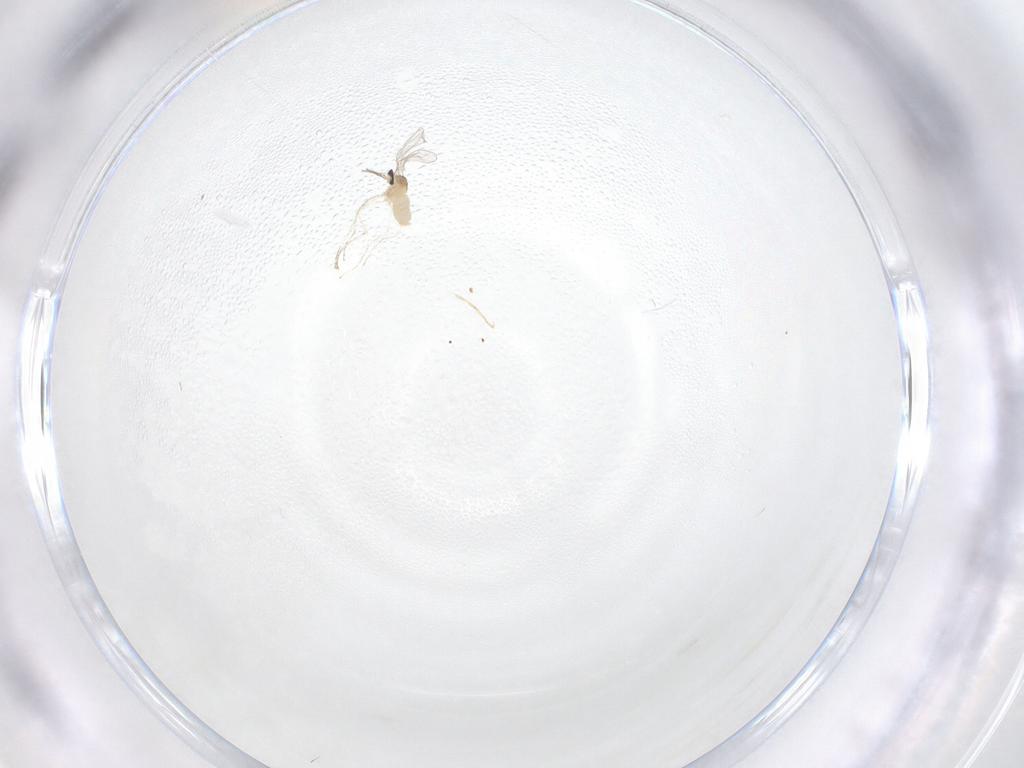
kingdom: Animalia
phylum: Arthropoda
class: Insecta
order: Diptera
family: Cecidomyiidae
